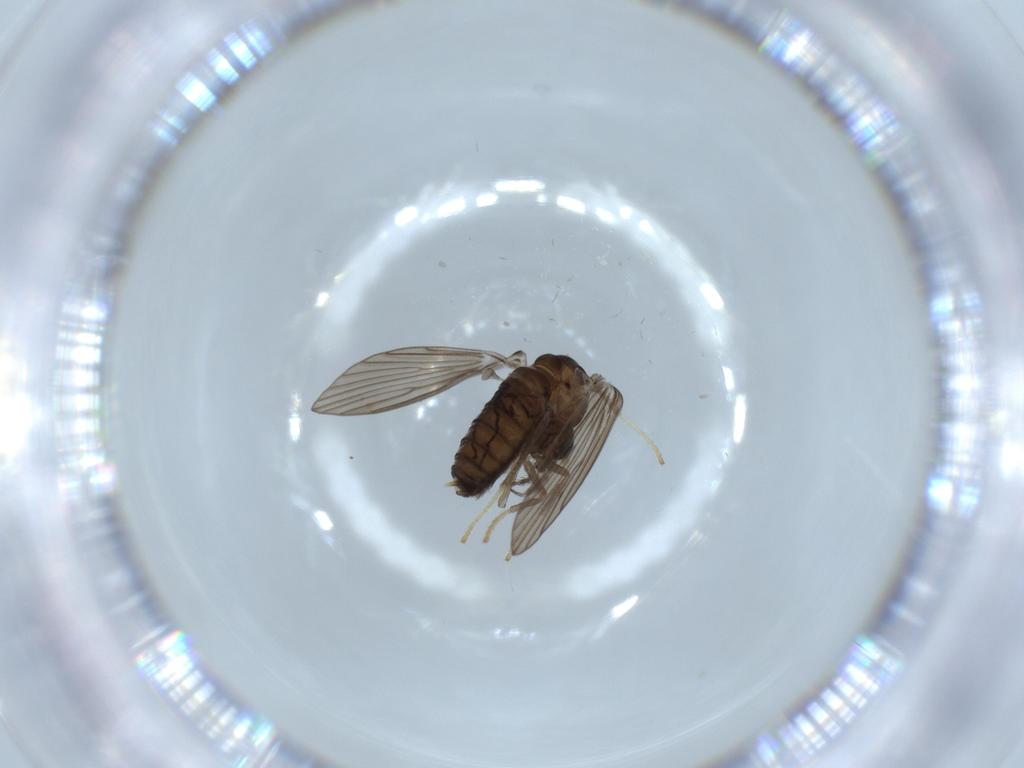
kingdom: Animalia
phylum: Arthropoda
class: Insecta
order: Diptera
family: Psychodidae
